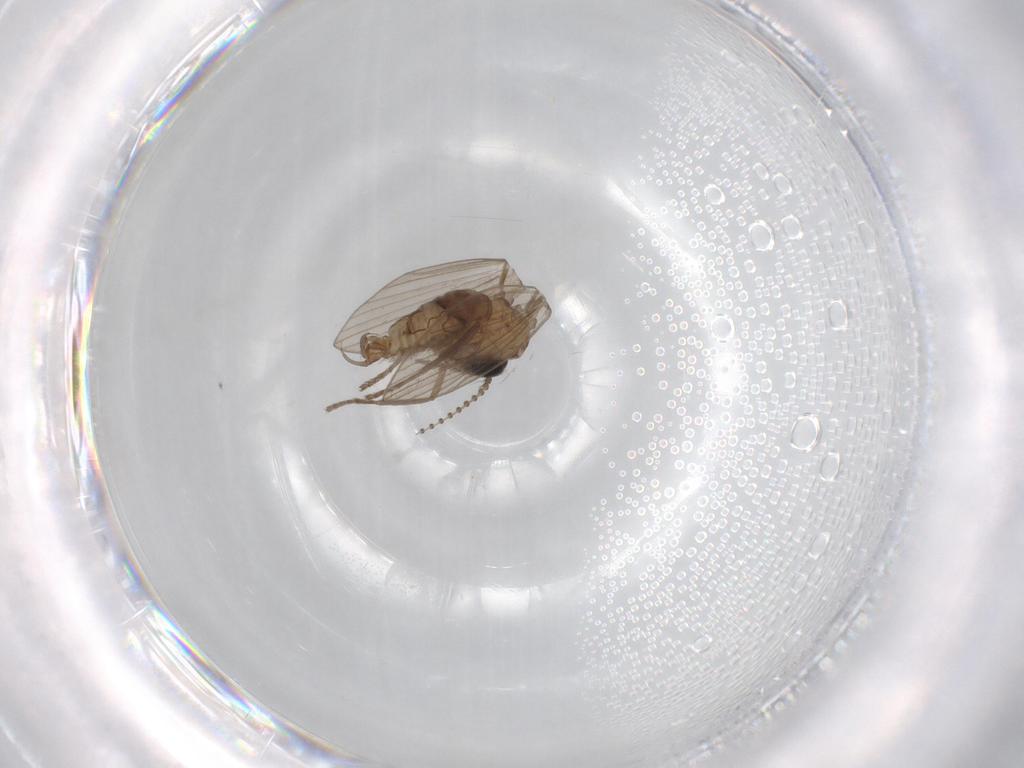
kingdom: Animalia
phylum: Arthropoda
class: Insecta
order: Diptera
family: Psychodidae
